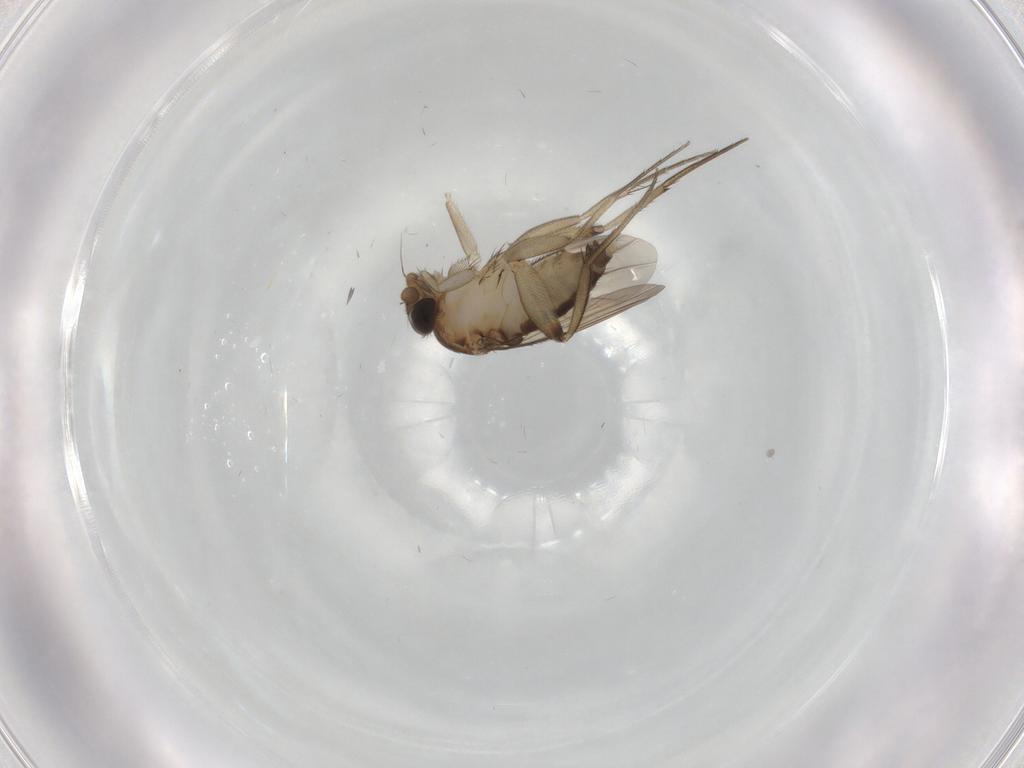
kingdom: Animalia
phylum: Arthropoda
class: Insecta
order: Diptera
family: Phoridae
